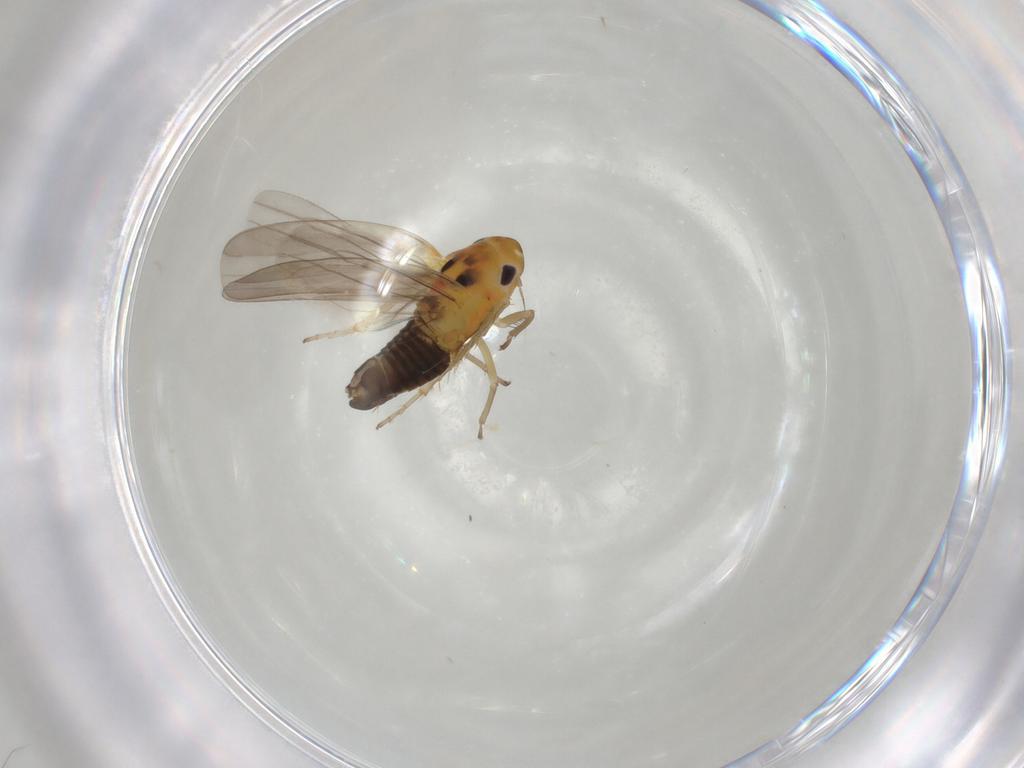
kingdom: Animalia
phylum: Arthropoda
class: Insecta
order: Hemiptera
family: Cicadellidae
